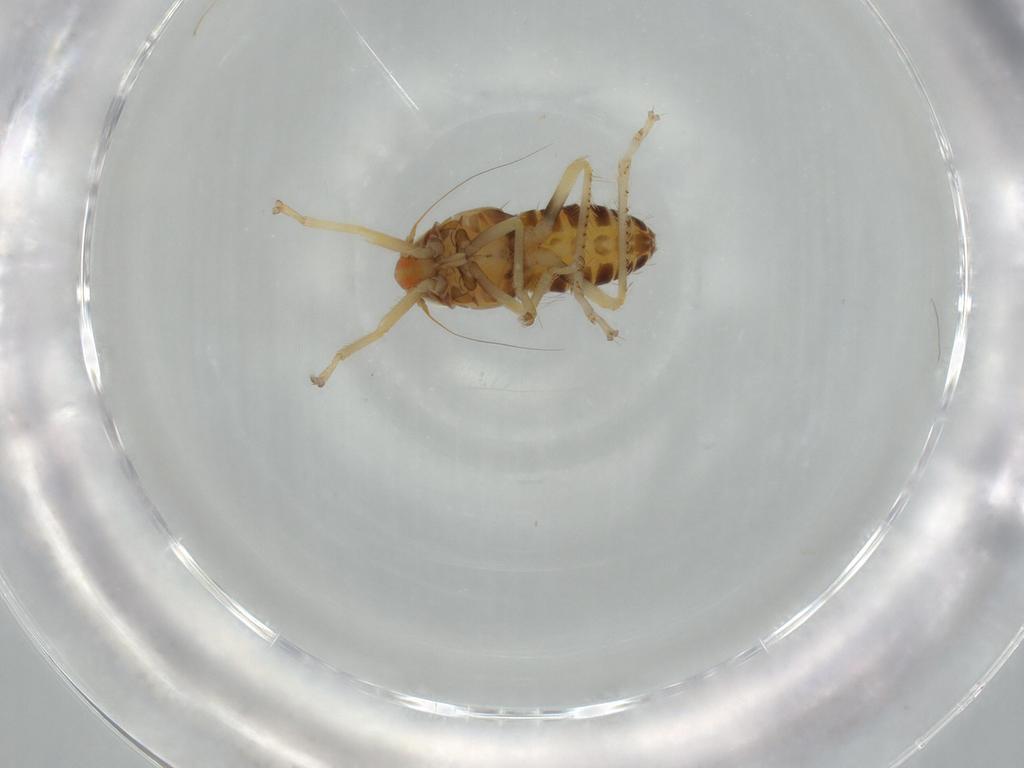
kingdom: Animalia
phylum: Arthropoda
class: Insecta
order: Hemiptera
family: Cicadellidae
